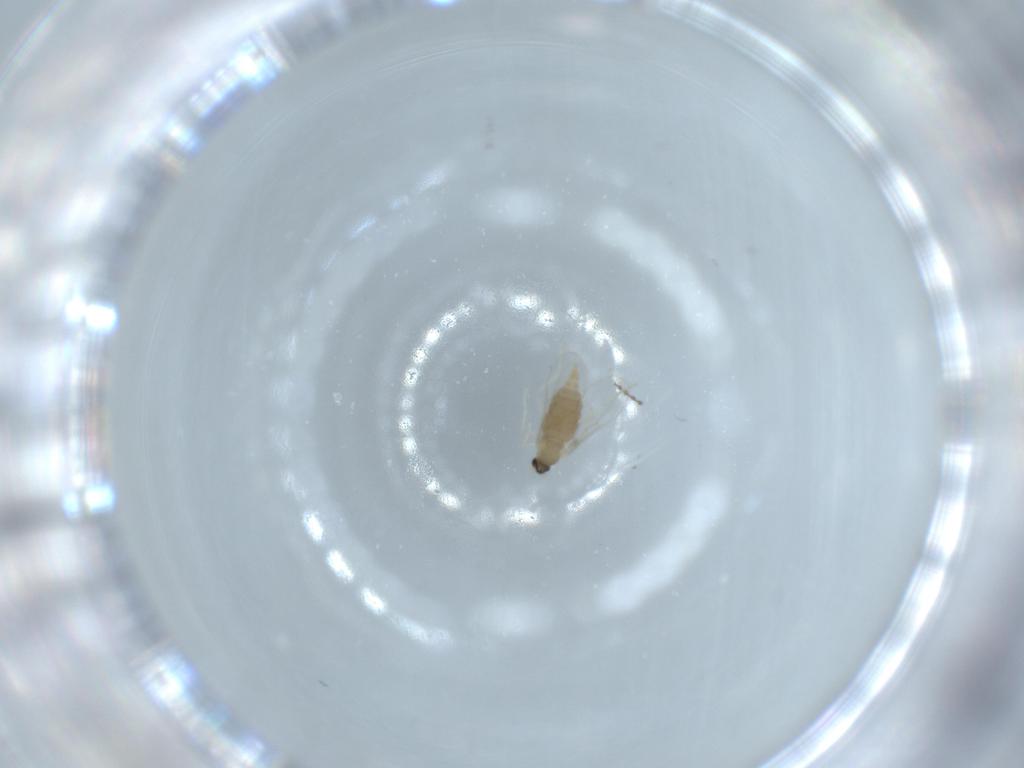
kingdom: Animalia
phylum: Arthropoda
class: Insecta
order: Diptera
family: Cecidomyiidae
